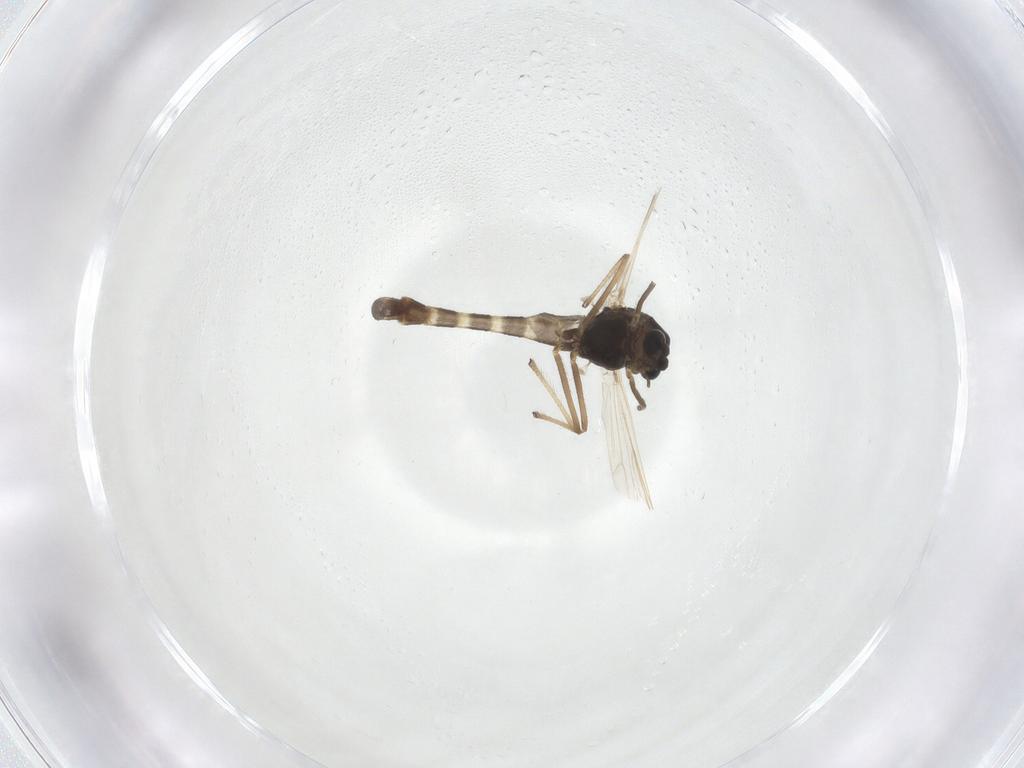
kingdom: Animalia
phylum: Arthropoda
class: Insecta
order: Diptera
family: Chironomidae
